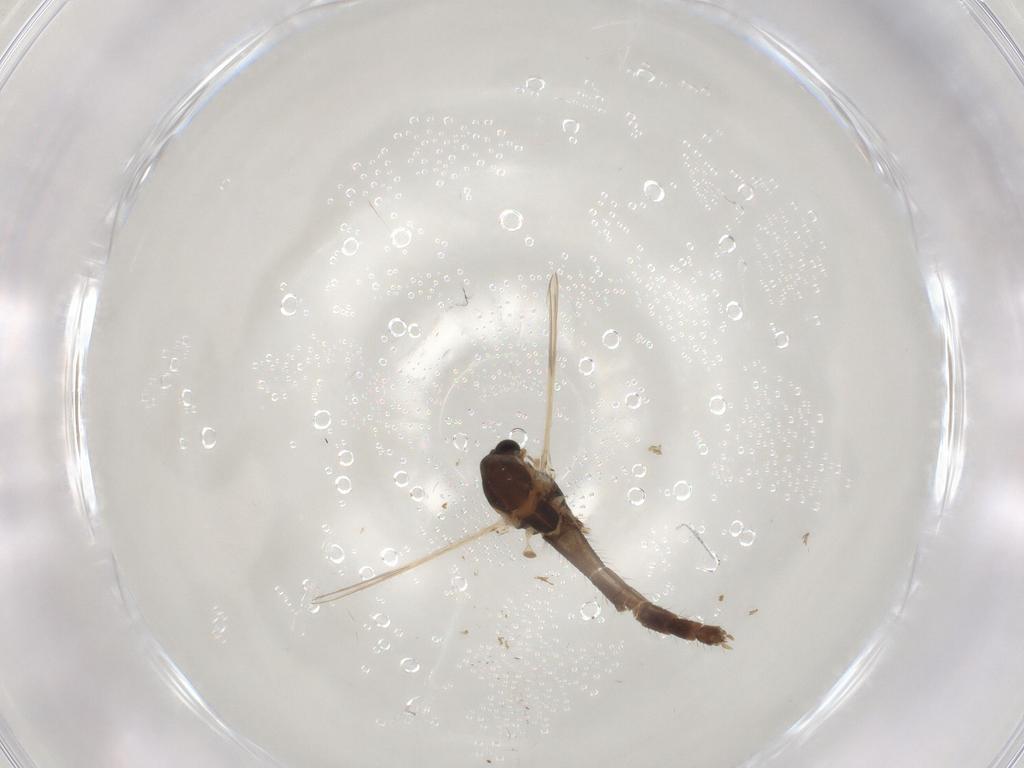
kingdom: Animalia
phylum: Arthropoda
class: Insecta
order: Diptera
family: Chironomidae
